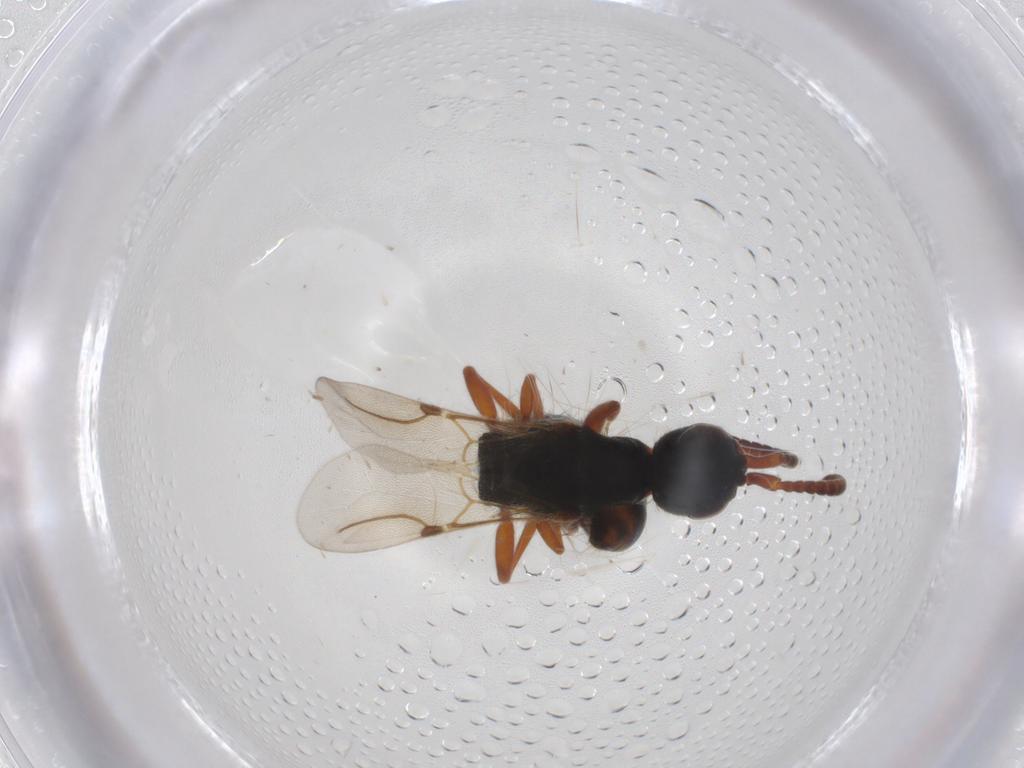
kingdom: Animalia
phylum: Arthropoda
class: Insecta
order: Hymenoptera
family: Bethylidae
